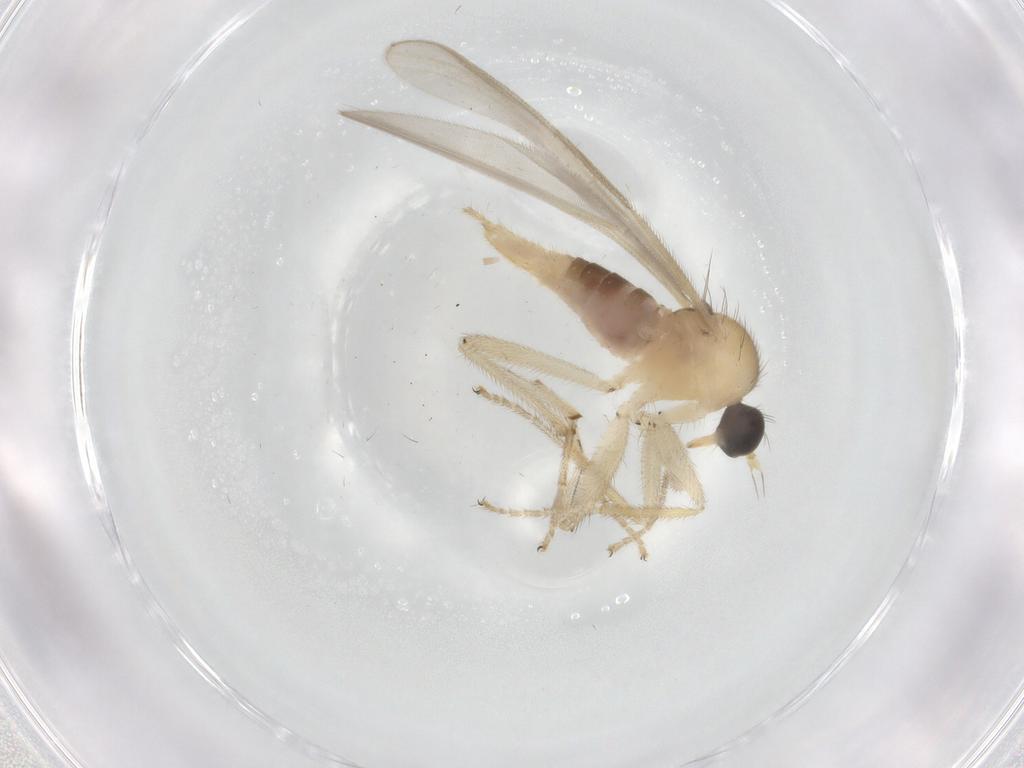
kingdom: Animalia
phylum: Arthropoda
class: Insecta
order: Diptera
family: Hybotidae
